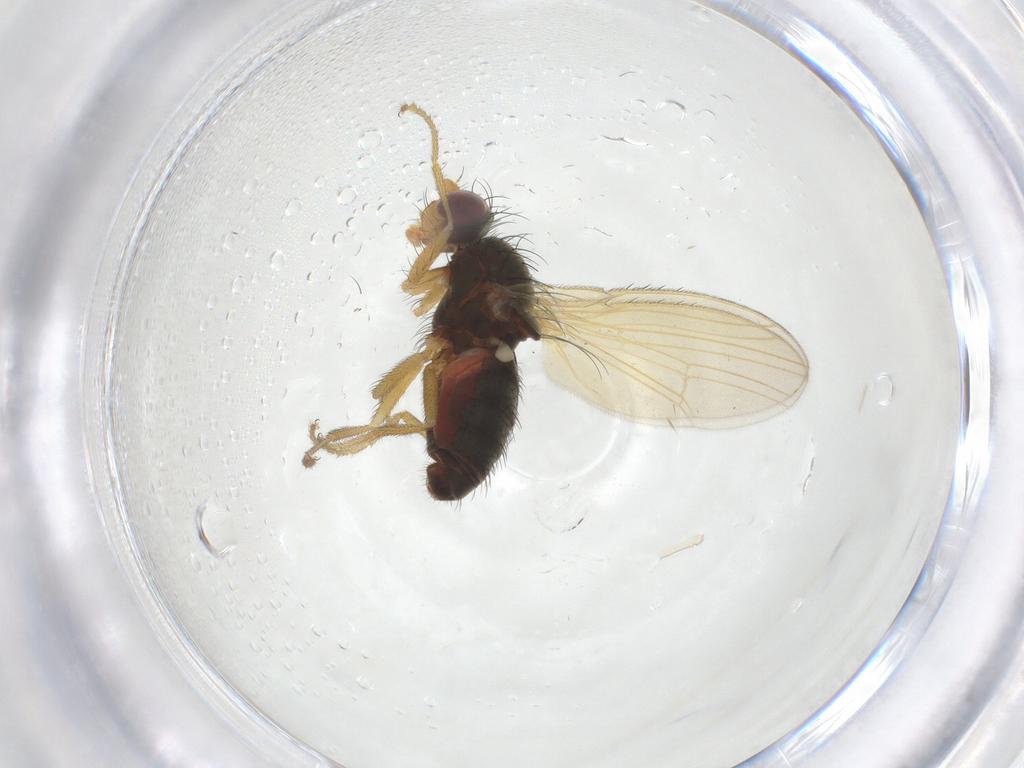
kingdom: Animalia
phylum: Arthropoda
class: Insecta
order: Diptera
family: Heleomyzidae
